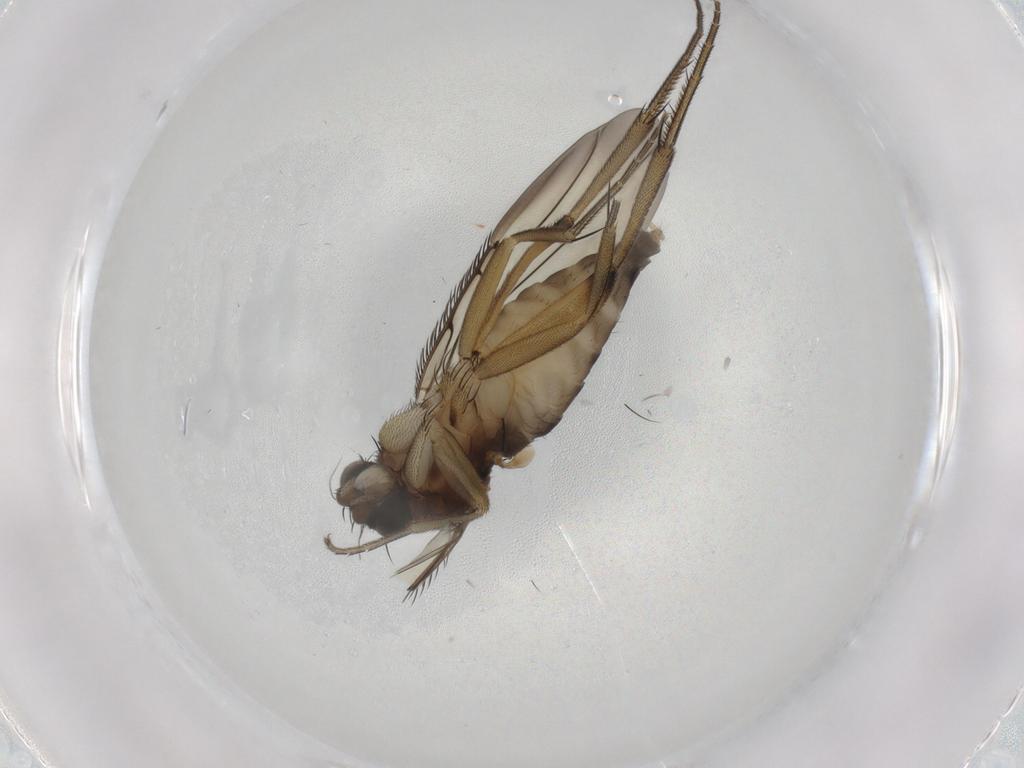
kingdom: Animalia
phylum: Arthropoda
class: Insecta
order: Diptera
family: Sciaridae
